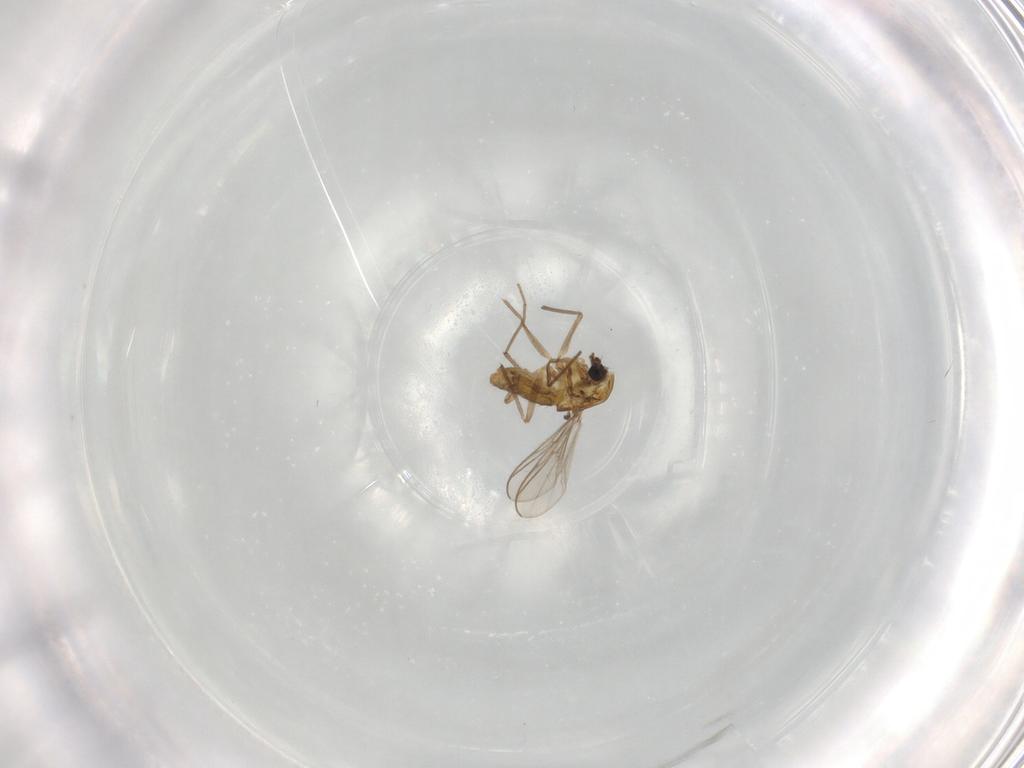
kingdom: Animalia
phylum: Arthropoda
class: Insecta
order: Diptera
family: Chironomidae
